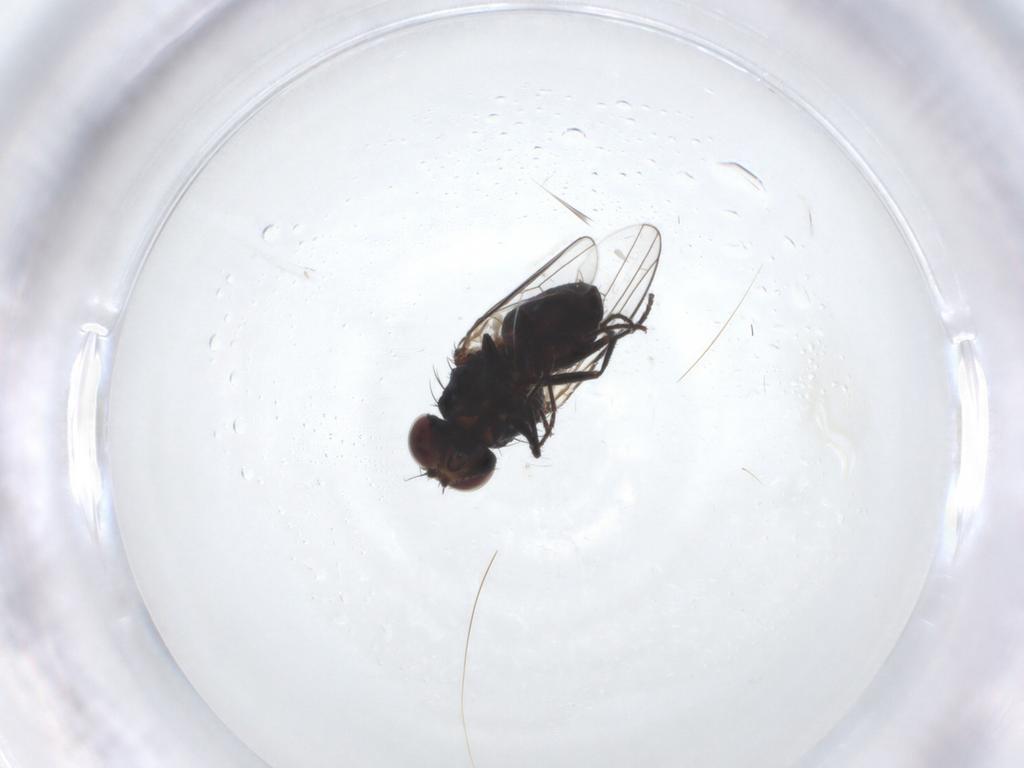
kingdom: Animalia
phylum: Arthropoda
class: Insecta
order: Diptera
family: Carnidae
